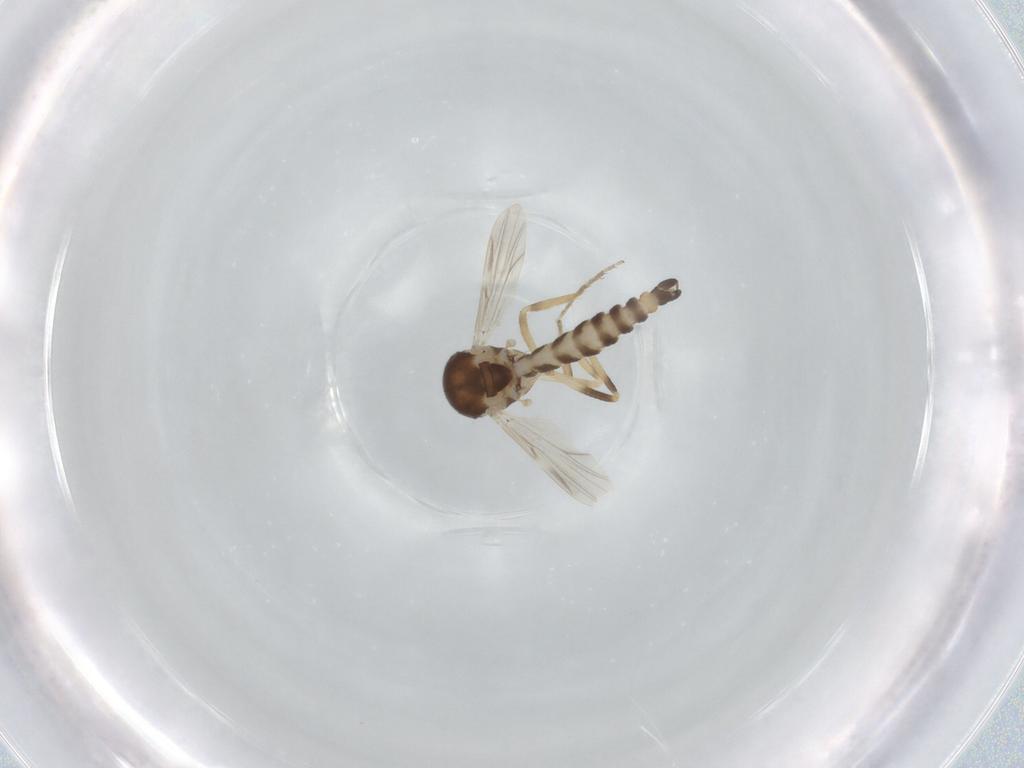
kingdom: Animalia
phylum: Arthropoda
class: Insecta
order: Diptera
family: Ceratopogonidae
